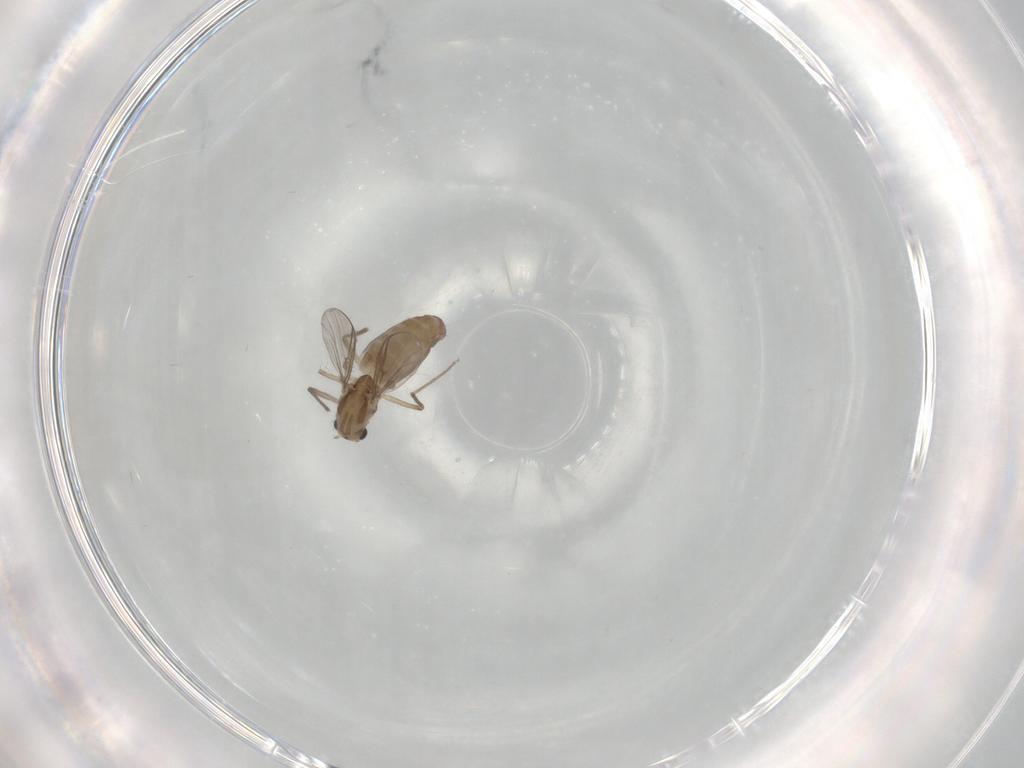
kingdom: Animalia
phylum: Arthropoda
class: Insecta
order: Diptera
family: Chironomidae
